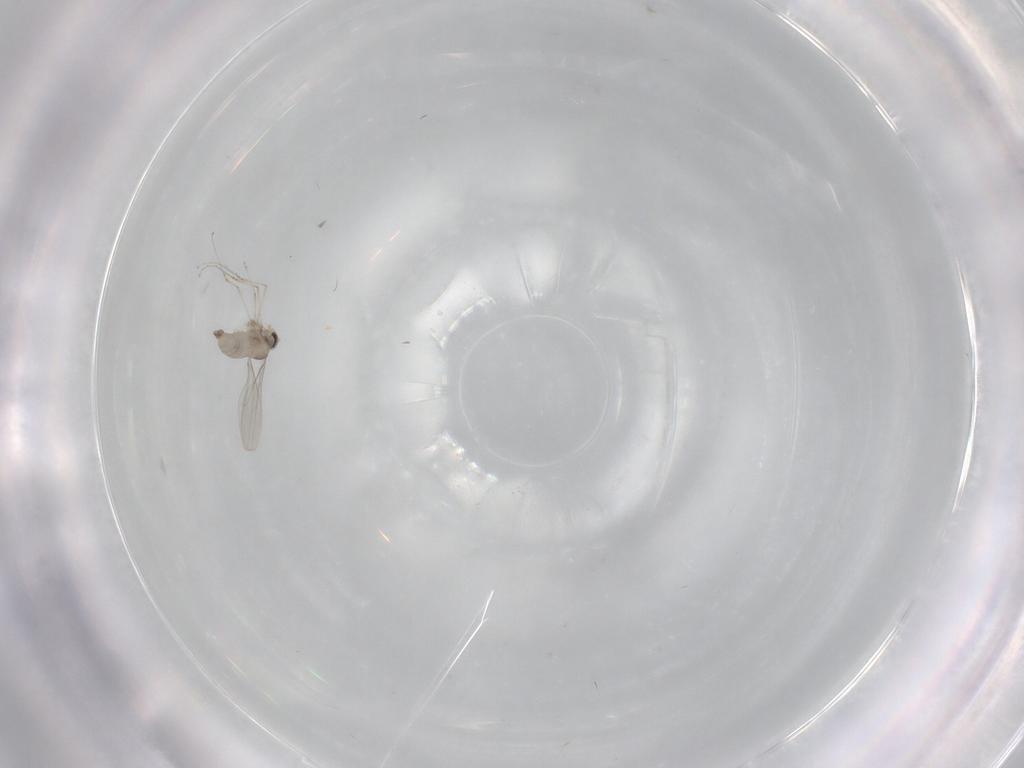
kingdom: Animalia
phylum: Arthropoda
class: Insecta
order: Diptera
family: Cecidomyiidae
